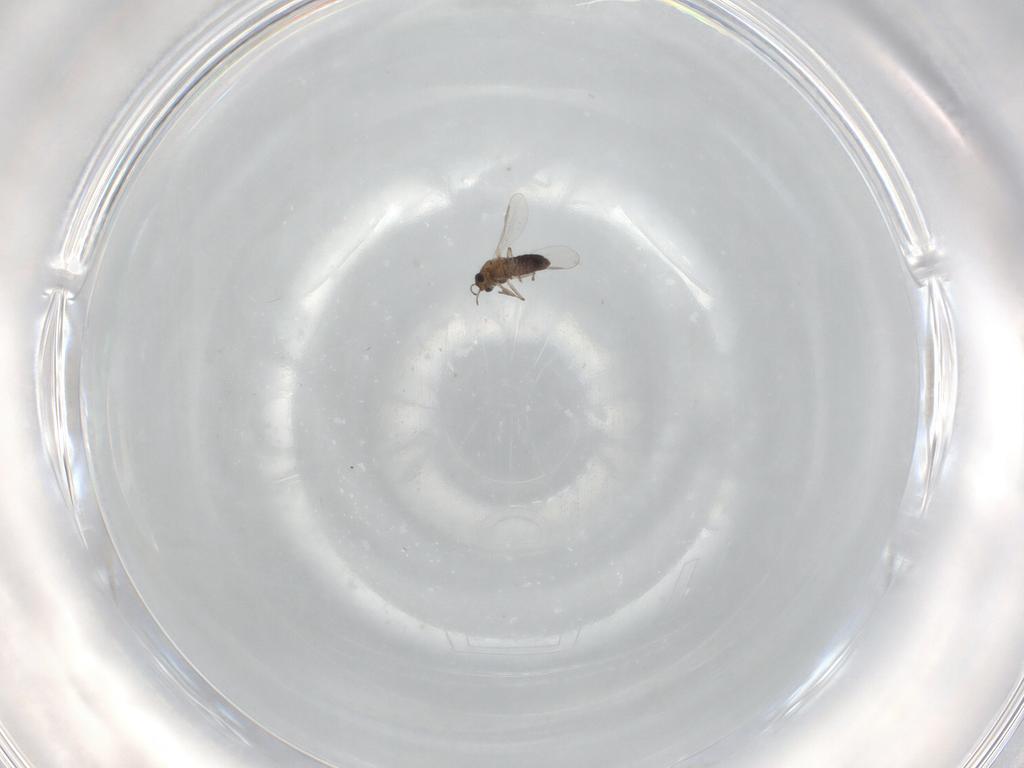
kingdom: Animalia
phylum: Arthropoda
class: Insecta
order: Diptera
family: Chironomidae
